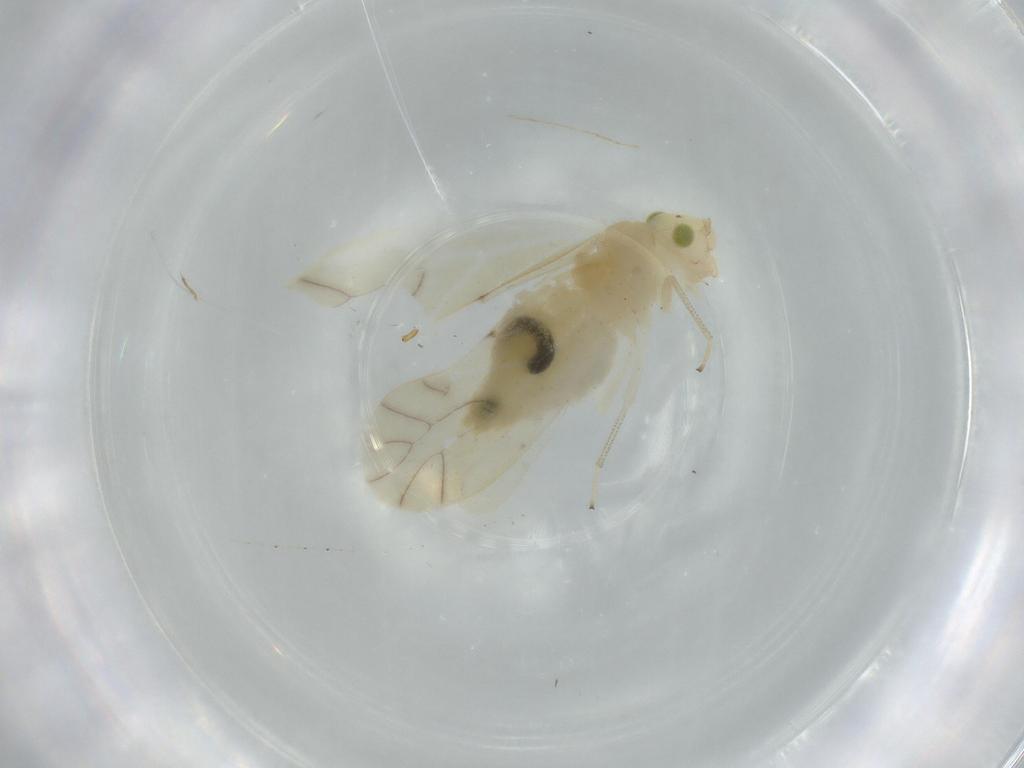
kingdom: Animalia
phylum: Arthropoda
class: Insecta
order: Psocodea
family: Caeciliusidae
